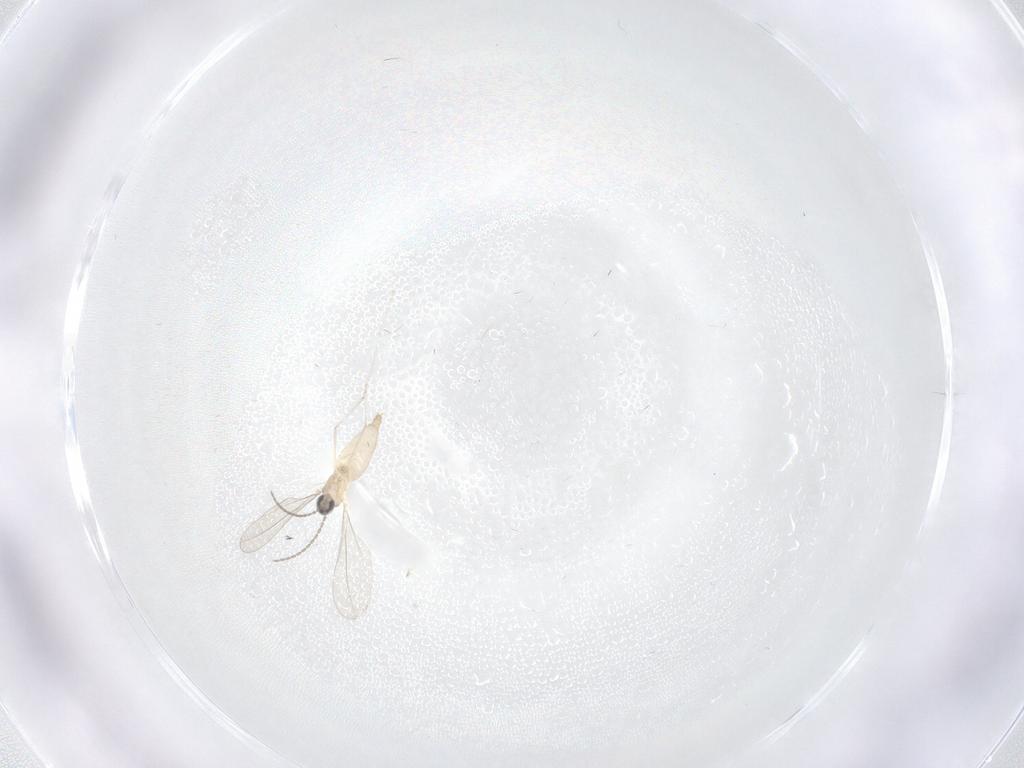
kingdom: Animalia
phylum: Arthropoda
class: Insecta
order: Diptera
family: Cecidomyiidae
